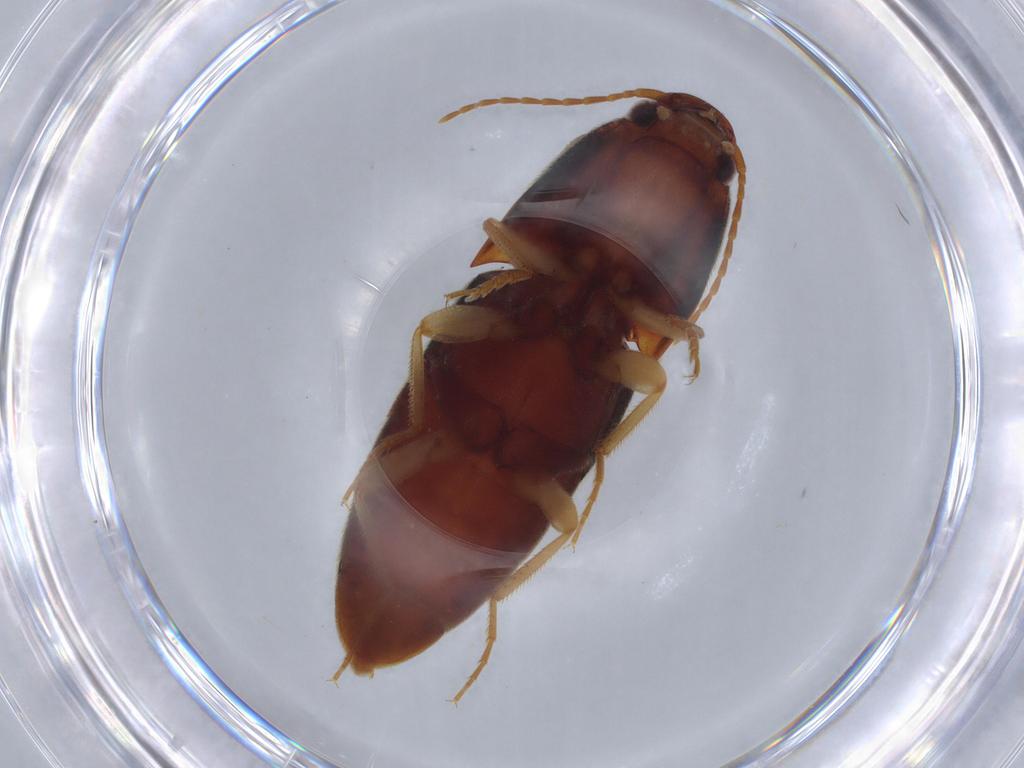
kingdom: Animalia
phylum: Arthropoda
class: Insecta
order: Coleoptera
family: Elateridae
